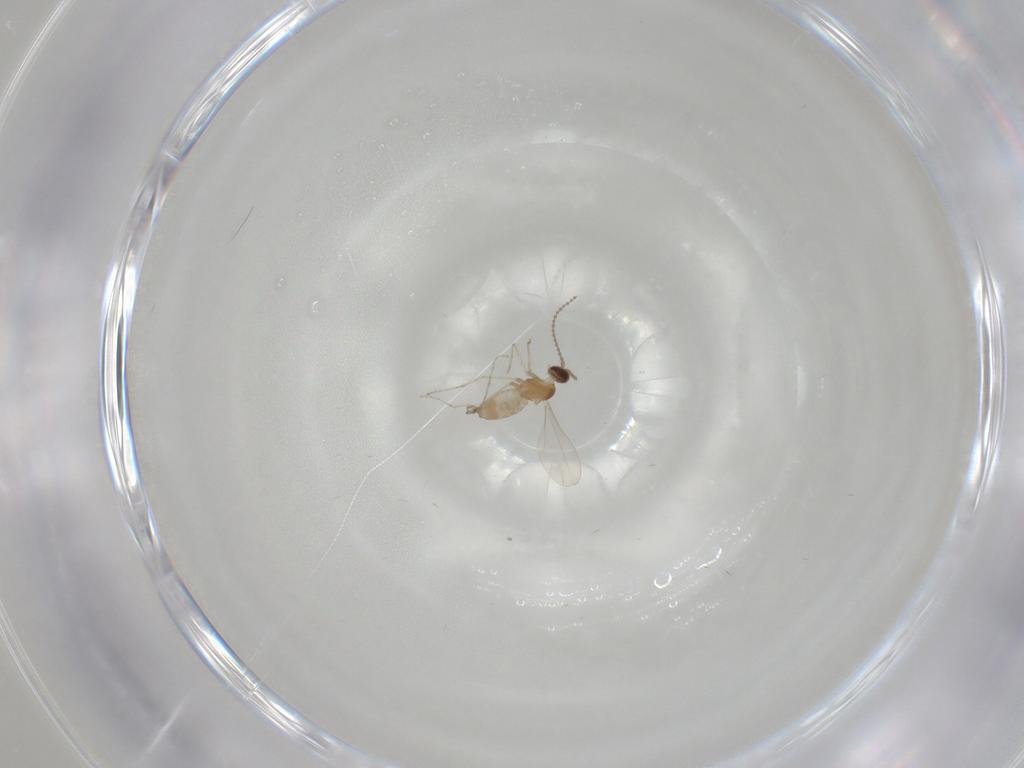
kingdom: Animalia
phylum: Arthropoda
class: Insecta
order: Diptera
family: Cecidomyiidae
